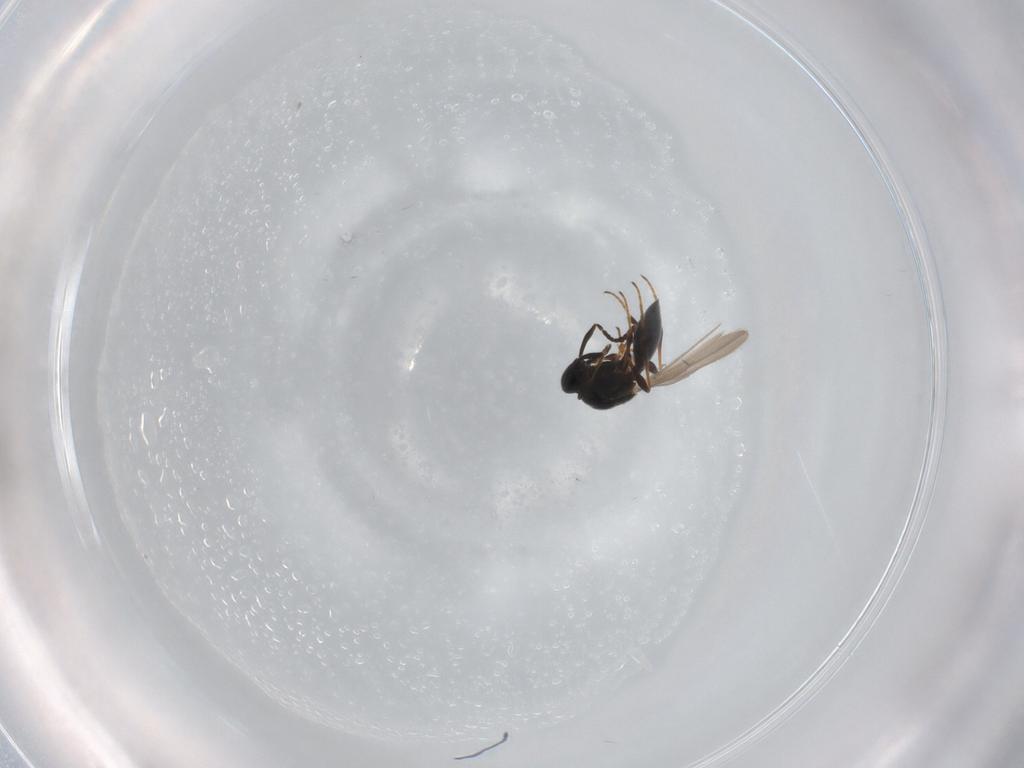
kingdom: Animalia
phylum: Arthropoda
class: Insecta
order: Hymenoptera
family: Platygastridae
